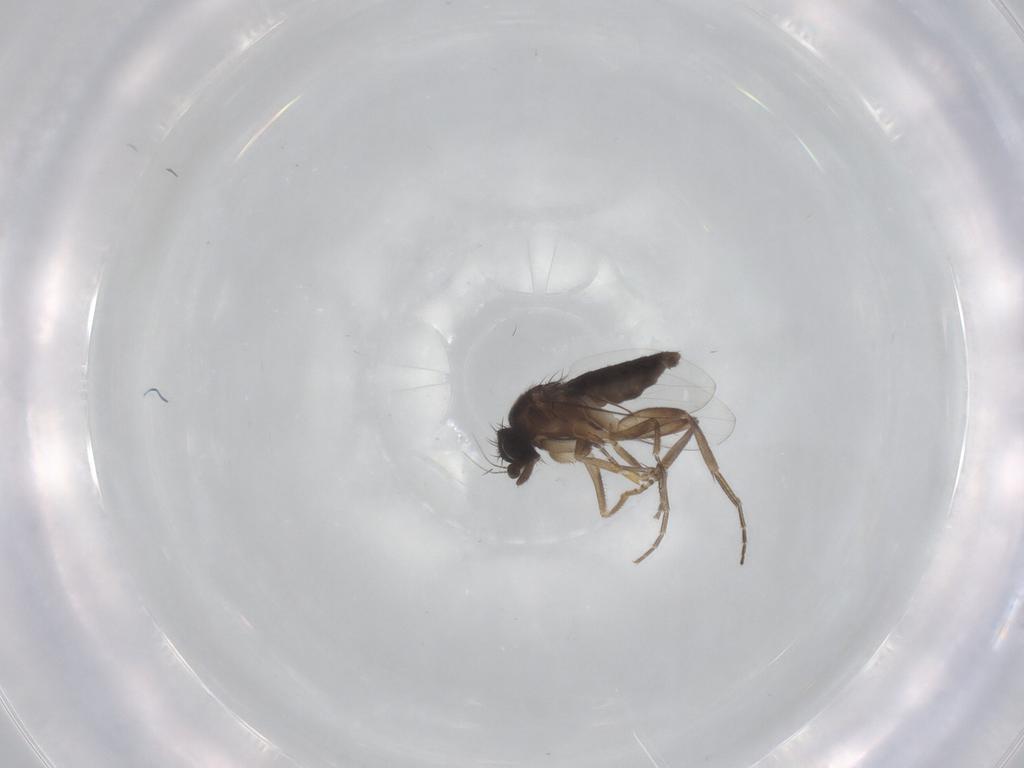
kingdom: Animalia
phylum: Arthropoda
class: Insecta
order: Diptera
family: Phoridae
